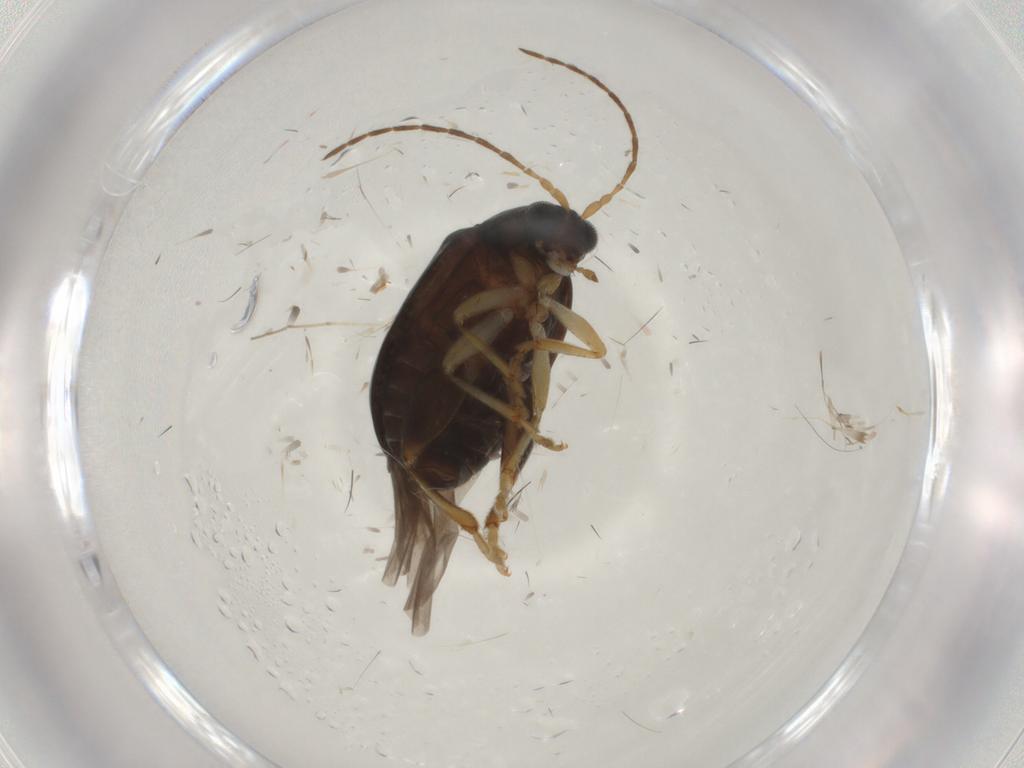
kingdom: Animalia
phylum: Arthropoda
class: Insecta
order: Coleoptera
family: Chrysomelidae
